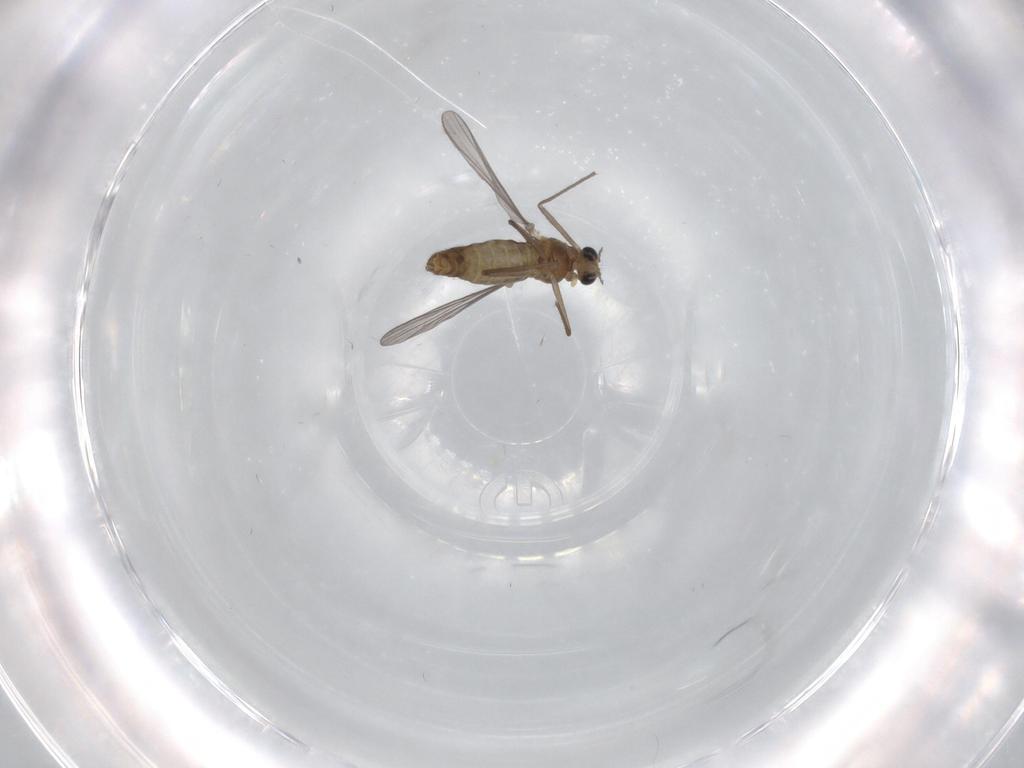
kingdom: Animalia
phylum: Arthropoda
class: Insecta
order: Diptera
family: Chironomidae
